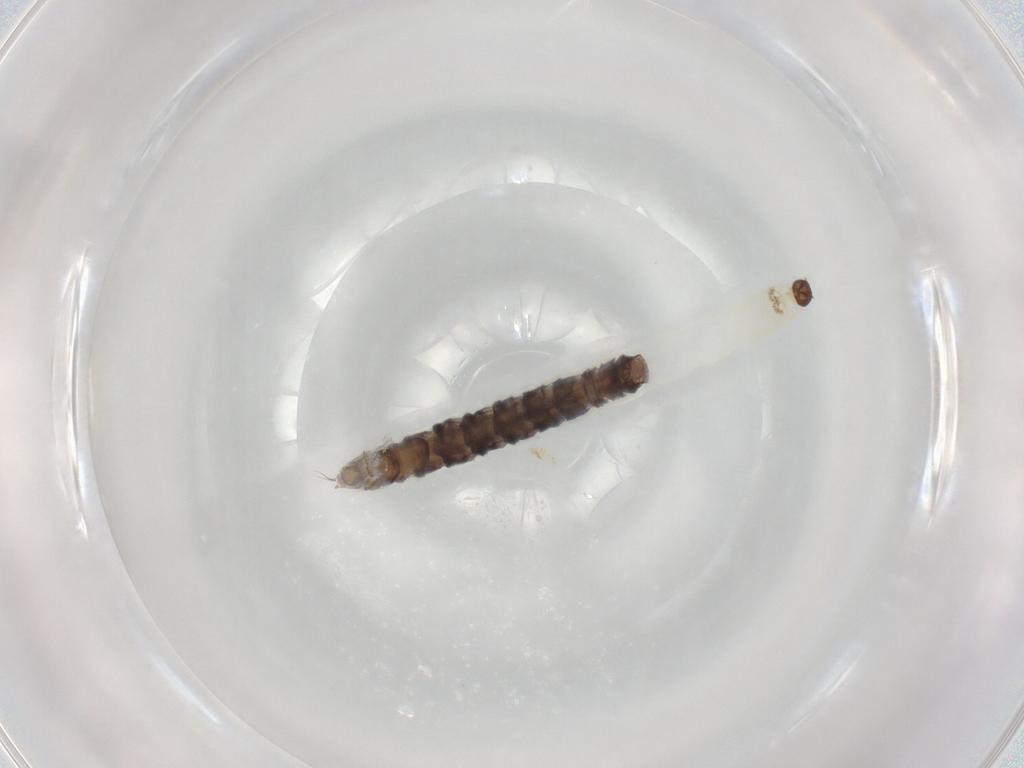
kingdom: Animalia
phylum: Arthropoda
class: Insecta
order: Diptera
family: Chironomidae
